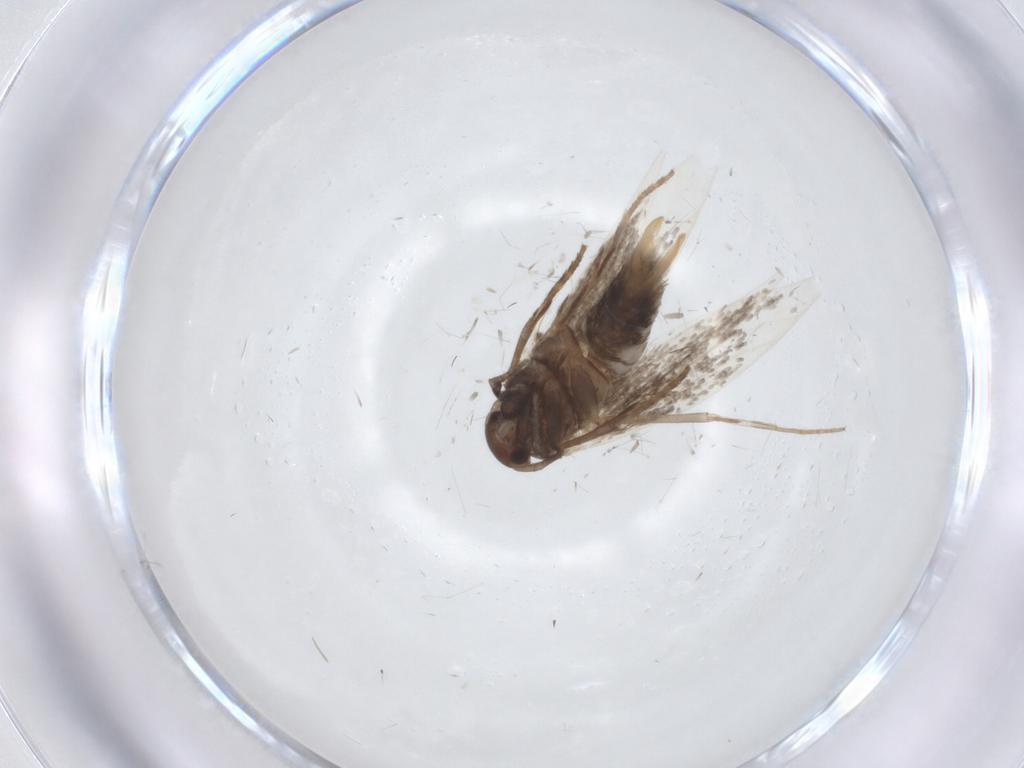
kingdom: Animalia
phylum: Arthropoda
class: Insecta
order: Lepidoptera
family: Elachistidae
